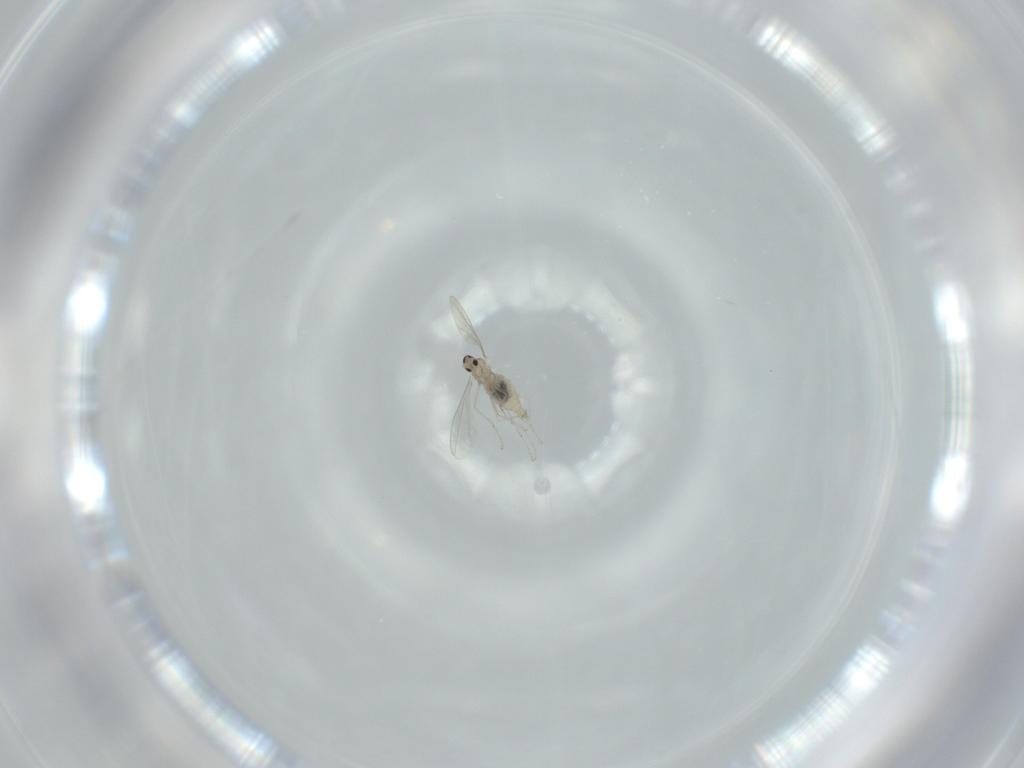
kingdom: Animalia
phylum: Arthropoda
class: Insecta
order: Diptera
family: Cecidomyiidae
